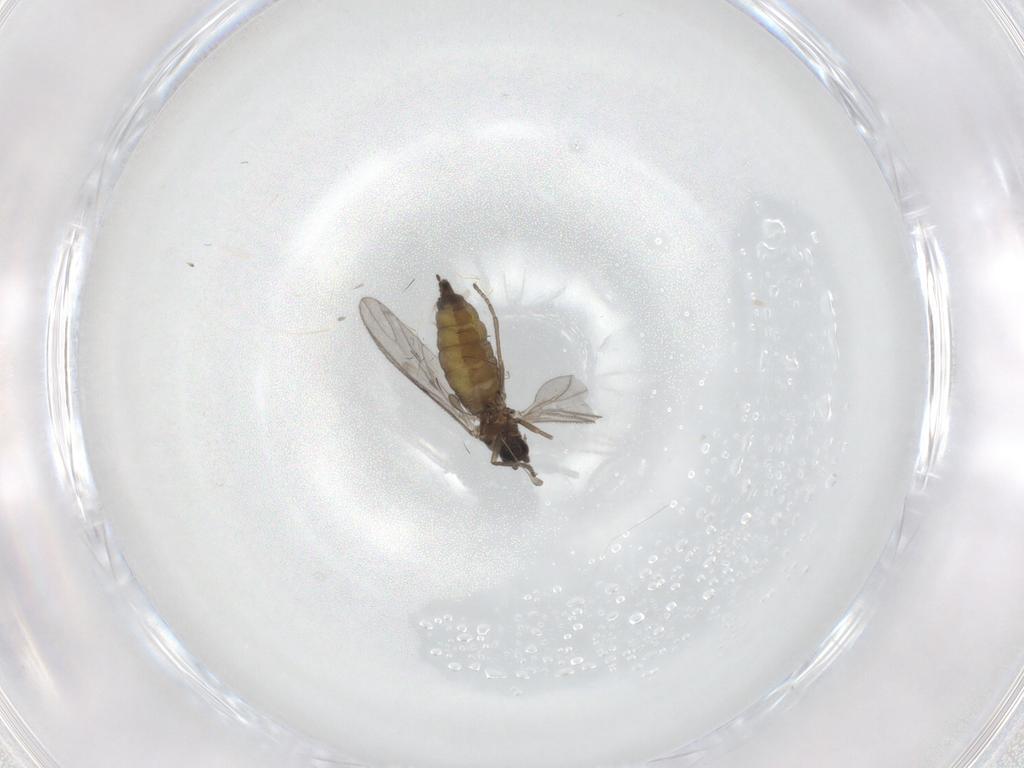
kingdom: Animalia
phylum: Arthropoda
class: Insecta
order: Diptera
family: Sciaridae
